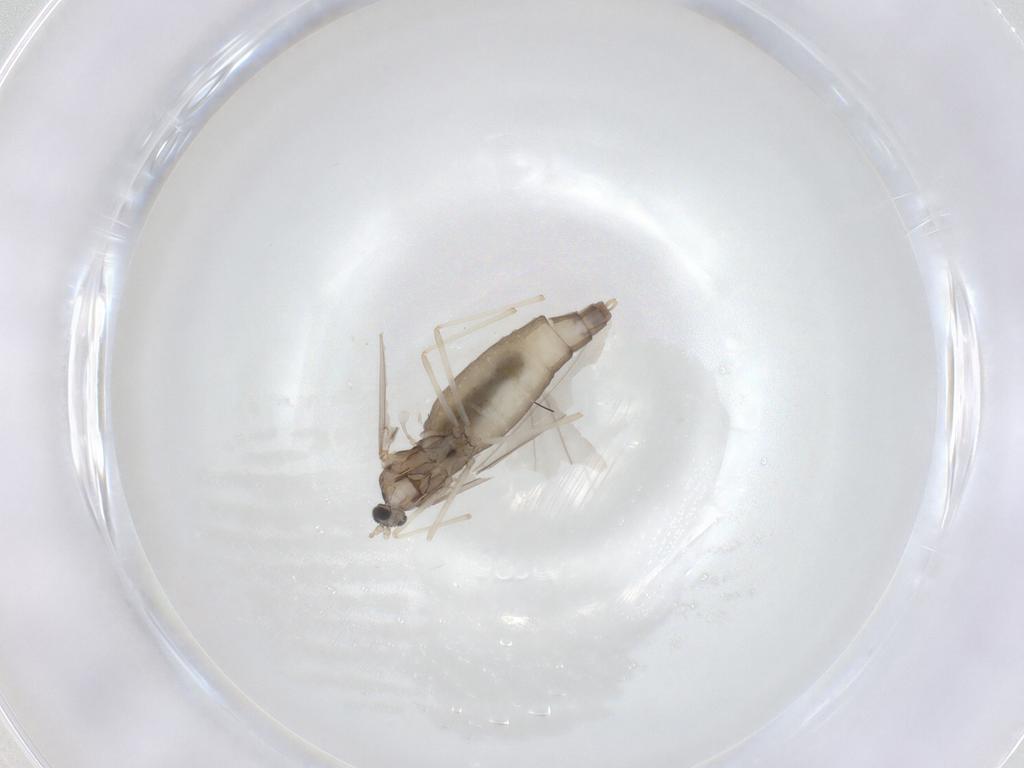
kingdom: Animalia
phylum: Arthropoda
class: Insecta
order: Diptera
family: Cecidomyiidae
